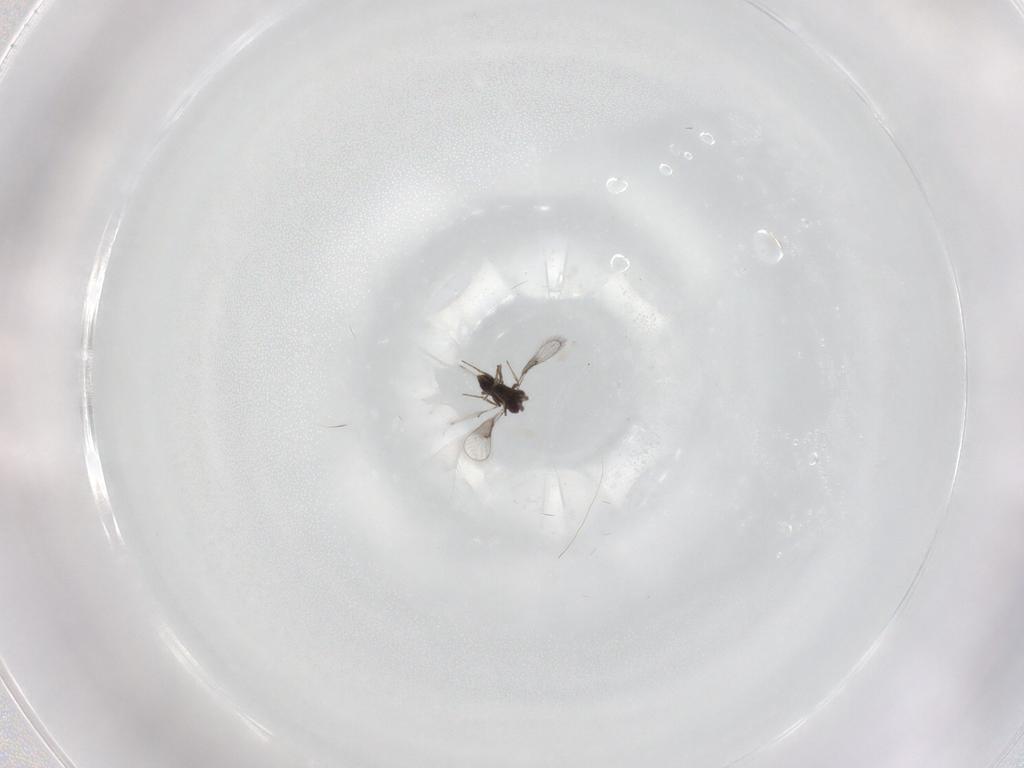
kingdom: Animalia
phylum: Arthropoda
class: Insecta
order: Hymenoptera
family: Trichogrammatidae
